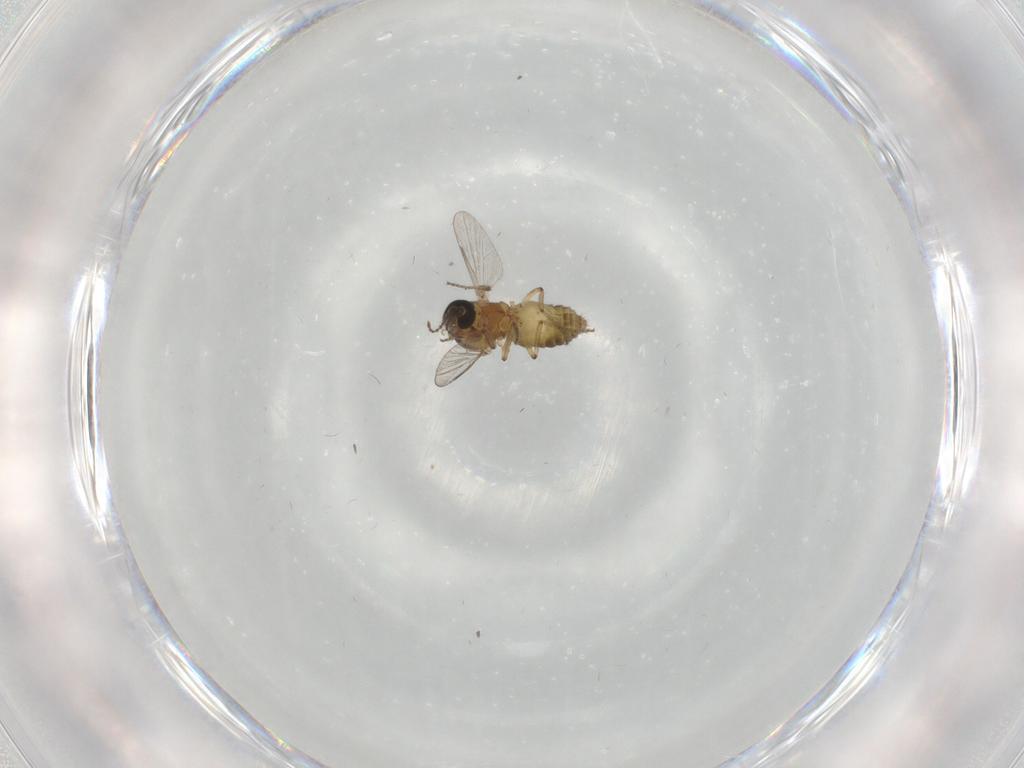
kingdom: Animalia
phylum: Arthropoda
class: Insecta
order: Diptera
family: Ceratopogonidae
